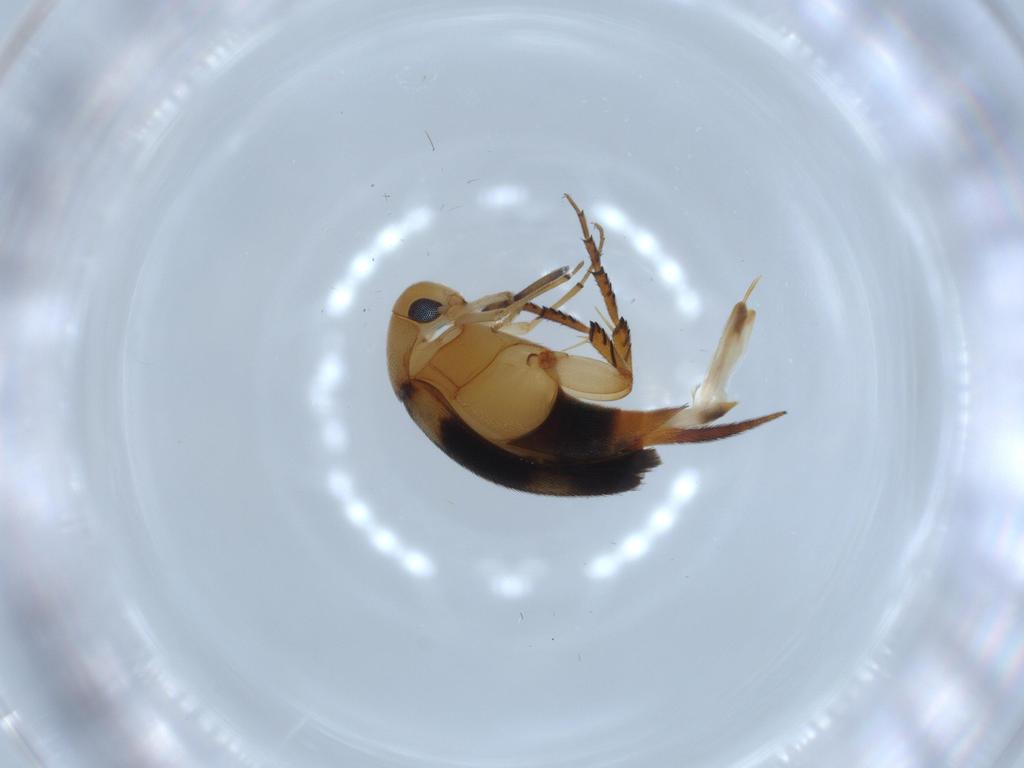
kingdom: Animalia
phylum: Arthropoda
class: Insecta
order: Coleoptera
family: Mordellidae
